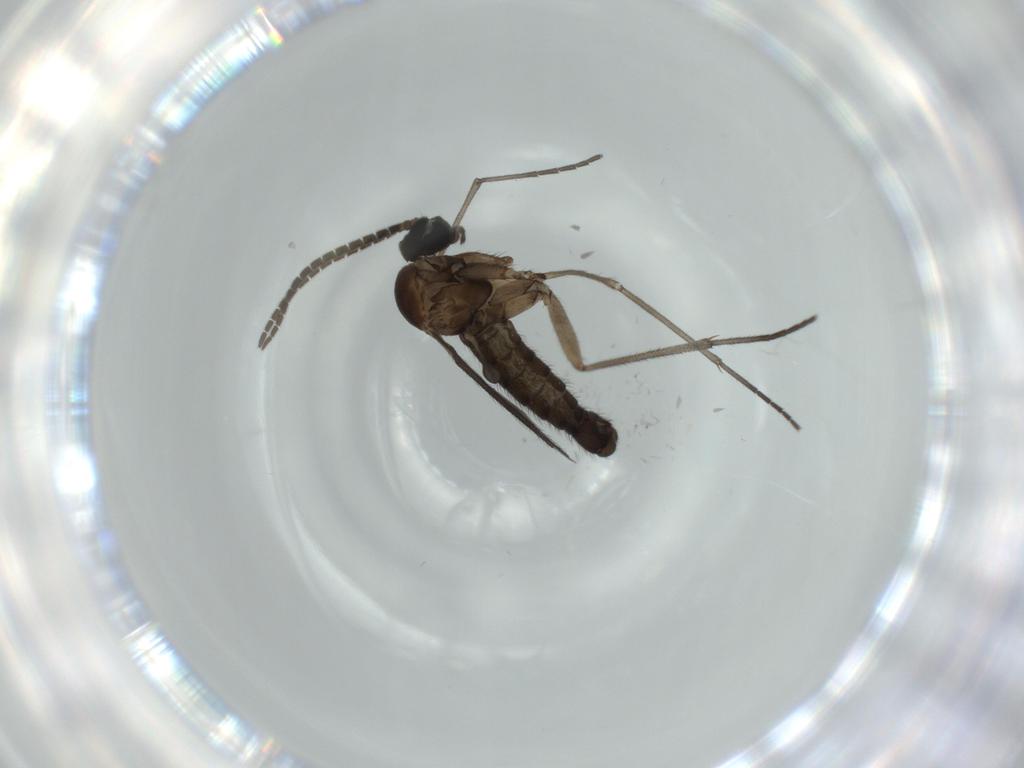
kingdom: Animalia
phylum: Arthropoda
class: Insecta
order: Diptera
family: Sciaridae
